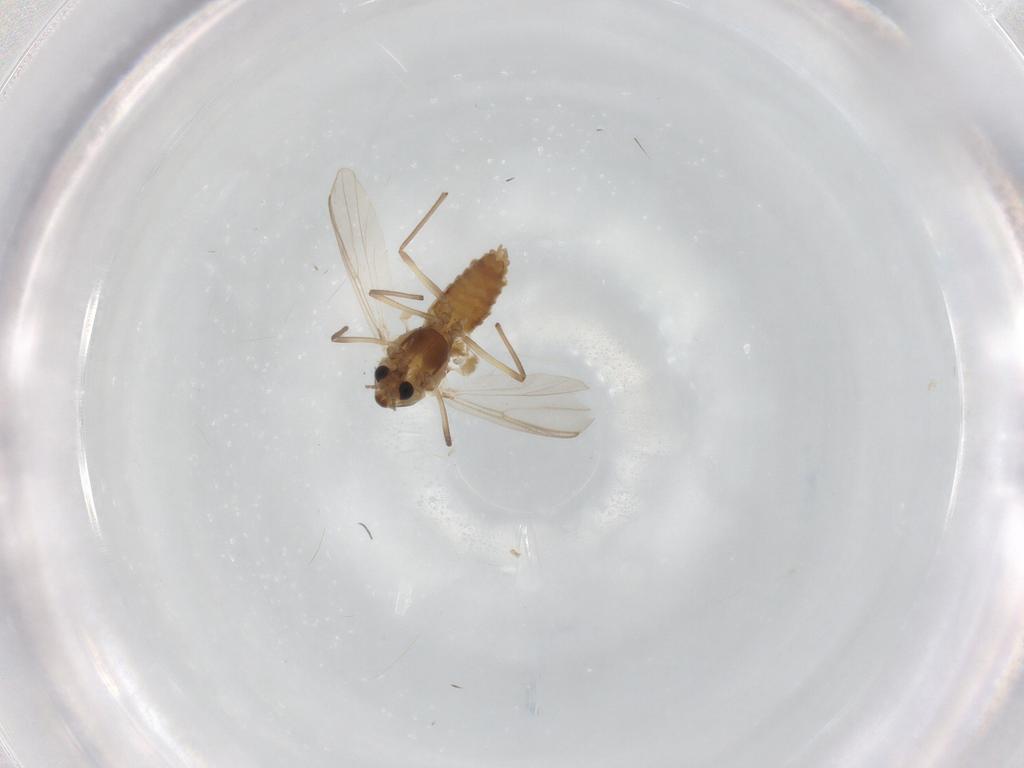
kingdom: Animalia
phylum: Arthropoda
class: Insecta
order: Diptera
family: Chironomidae
